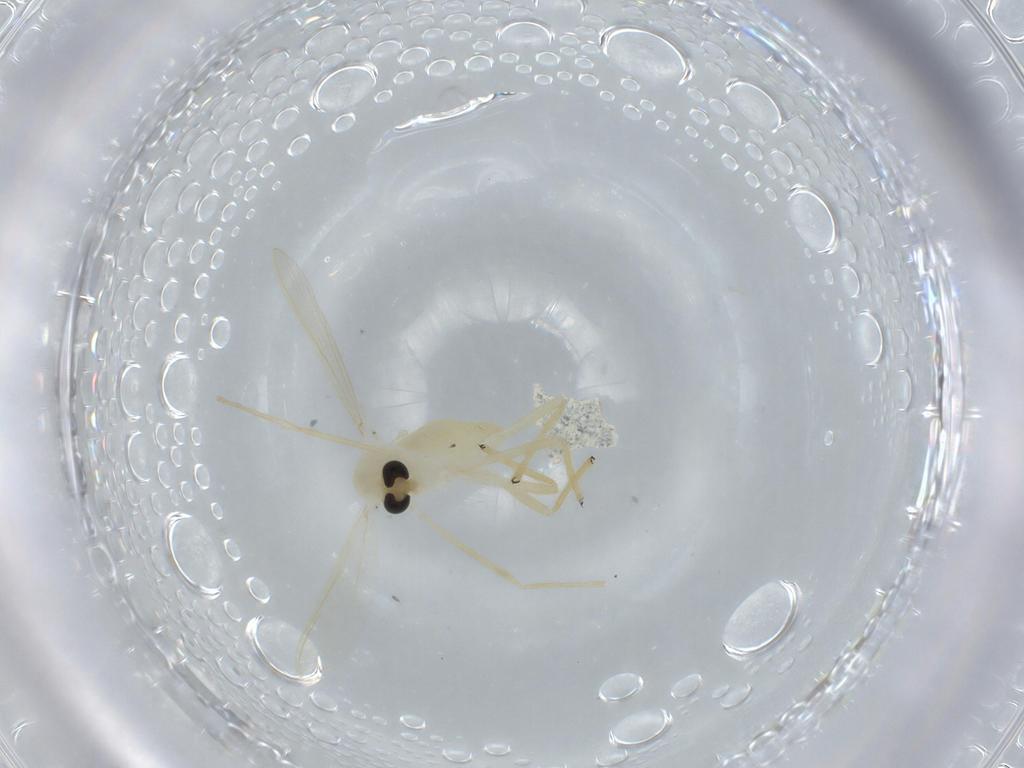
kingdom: Animalia
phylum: Arthropoda
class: Insecta
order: Diptera
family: Chironomidae
